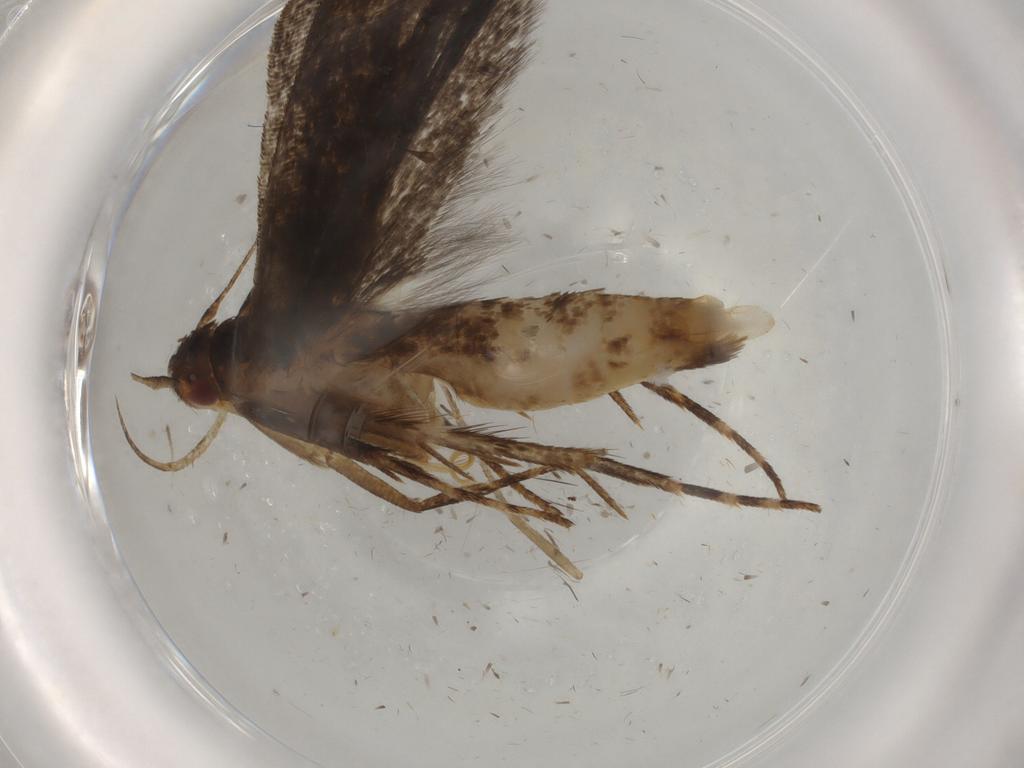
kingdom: Animalia
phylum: Arthropoda
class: Insecta
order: Lepidoptera
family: Gelechiidae
